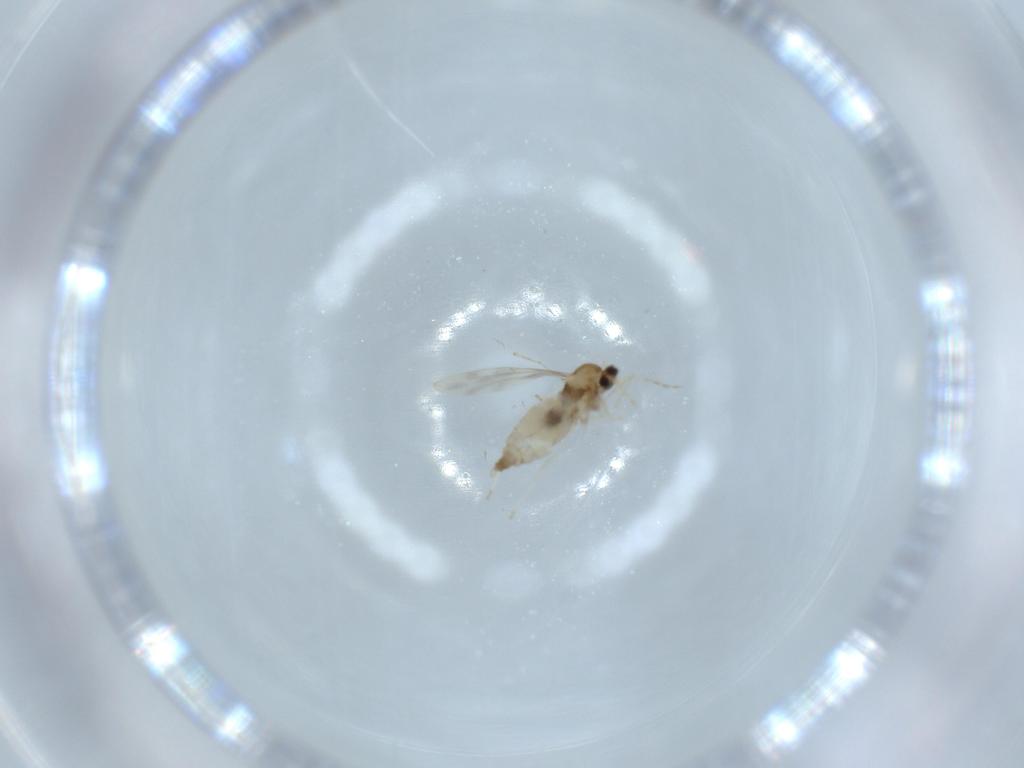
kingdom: Animalia
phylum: Arthropoda
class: Insecta
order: Diptera
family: Cecidomyiidae
